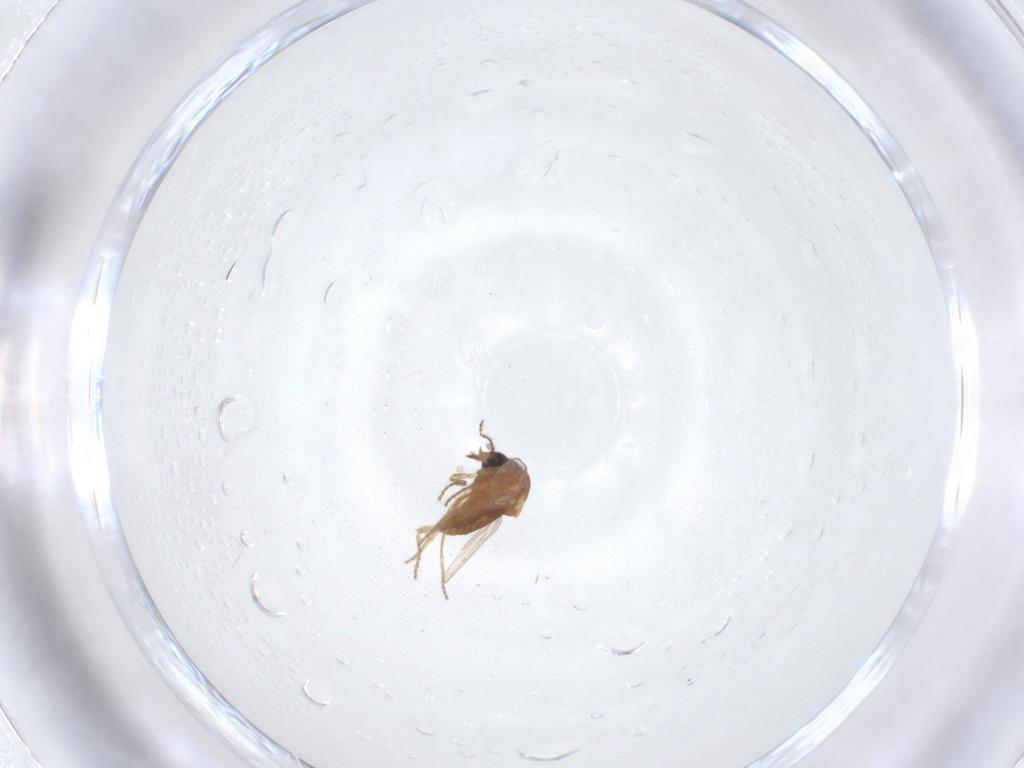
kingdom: Animalia
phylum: Arthropoda
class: Insecta
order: Diptera
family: Ceratopogonidae
